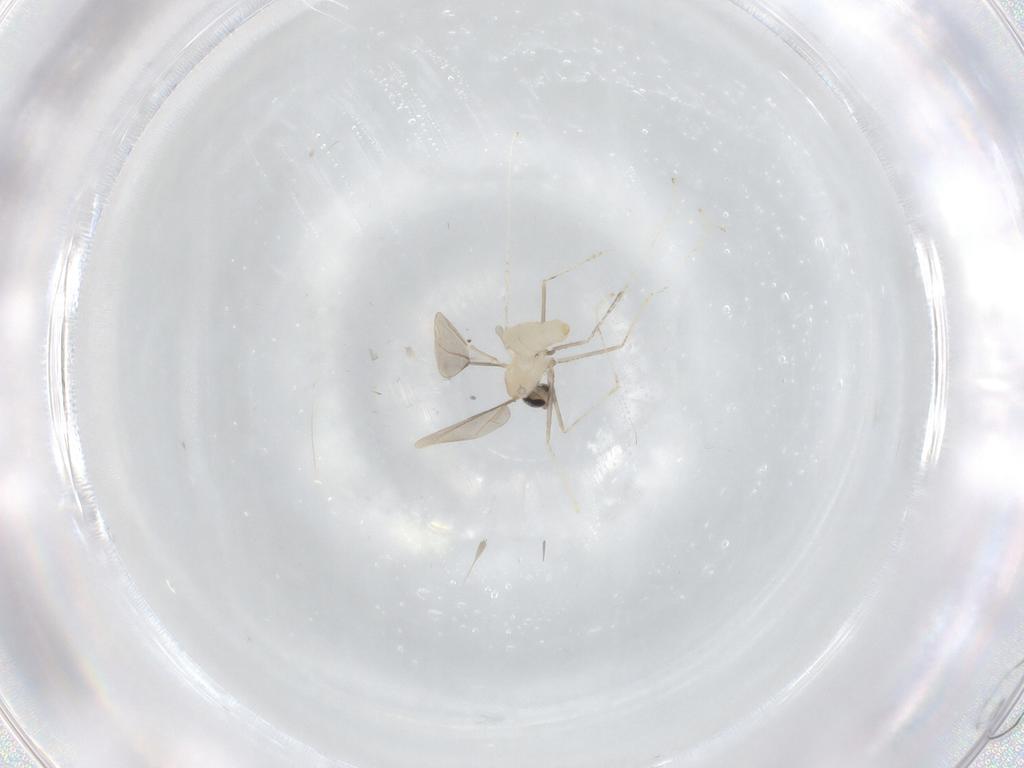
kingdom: Animalia
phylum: Arthropoda
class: Insecta
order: Diptera
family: Cecidomyiidae
